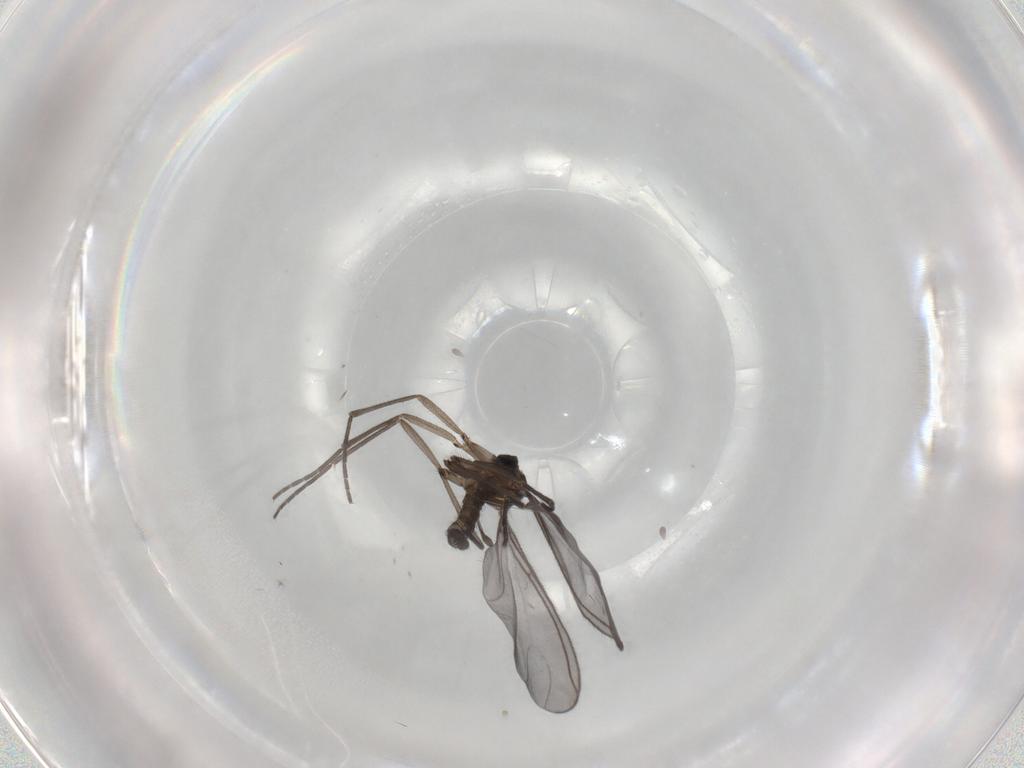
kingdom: Animalia
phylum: Arthropoda
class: Insecta
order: Diptera
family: Sciaridae
